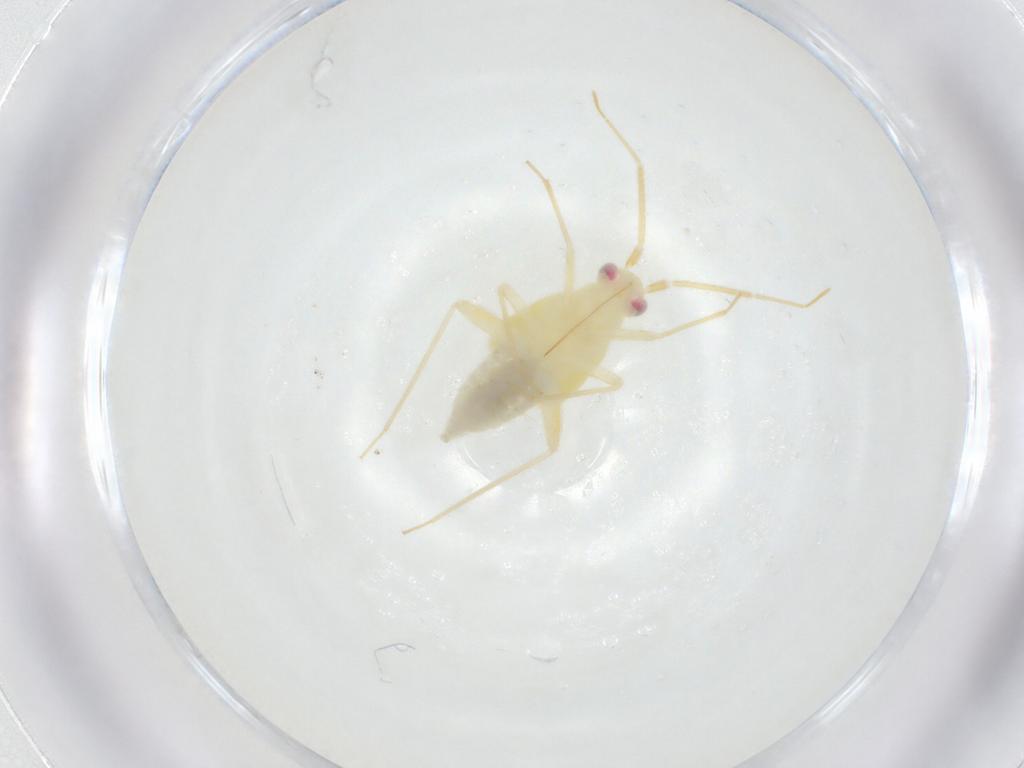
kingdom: Animalia
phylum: Arthropoda
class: Insecta
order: Hemiptera
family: Miridae
